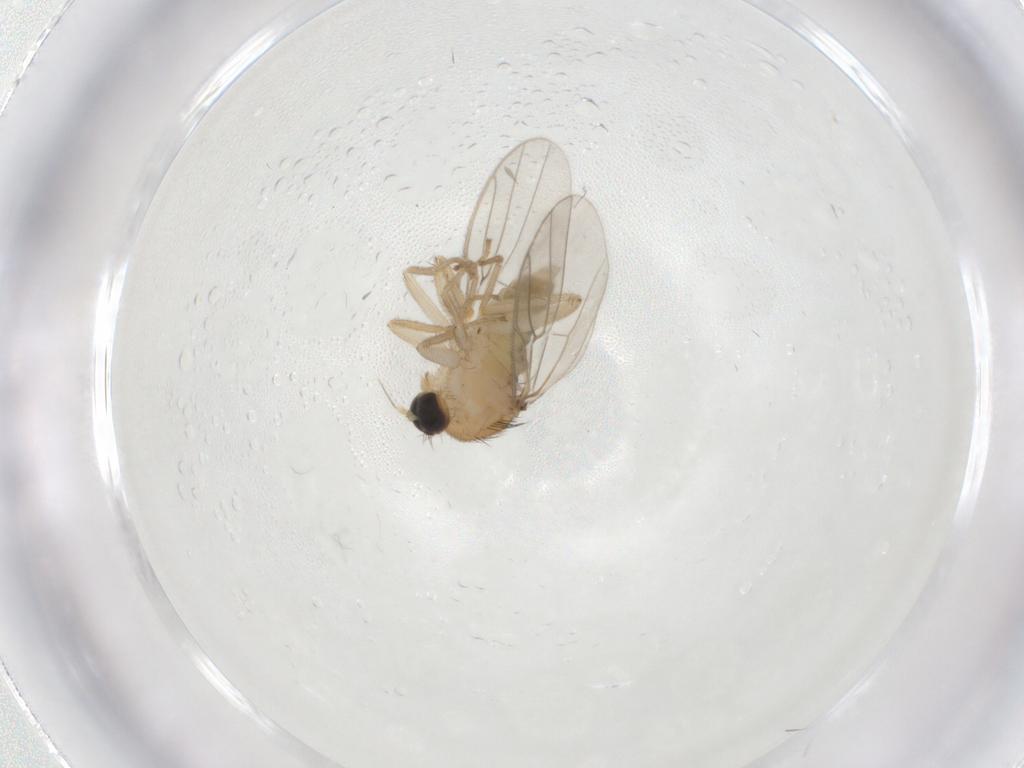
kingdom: Animalia
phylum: Arthropoda
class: Insecta
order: Diptera
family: Hybotidae
